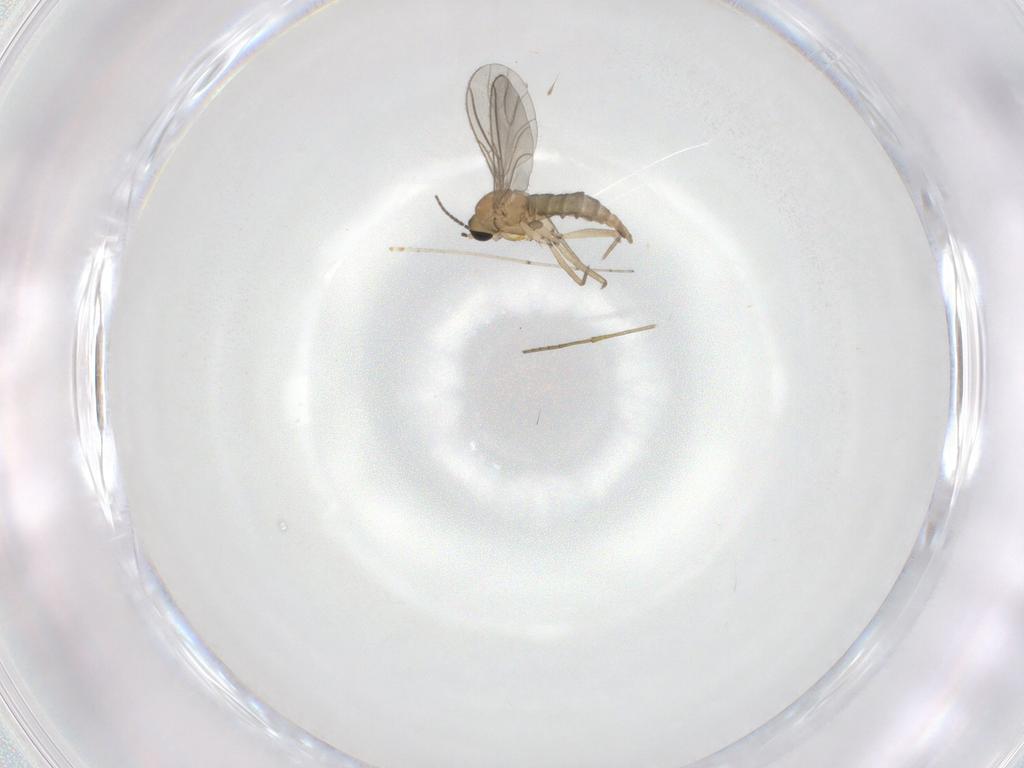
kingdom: Animalia
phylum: Arthropoda
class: Insecta
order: Diptera
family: Sciaridae
